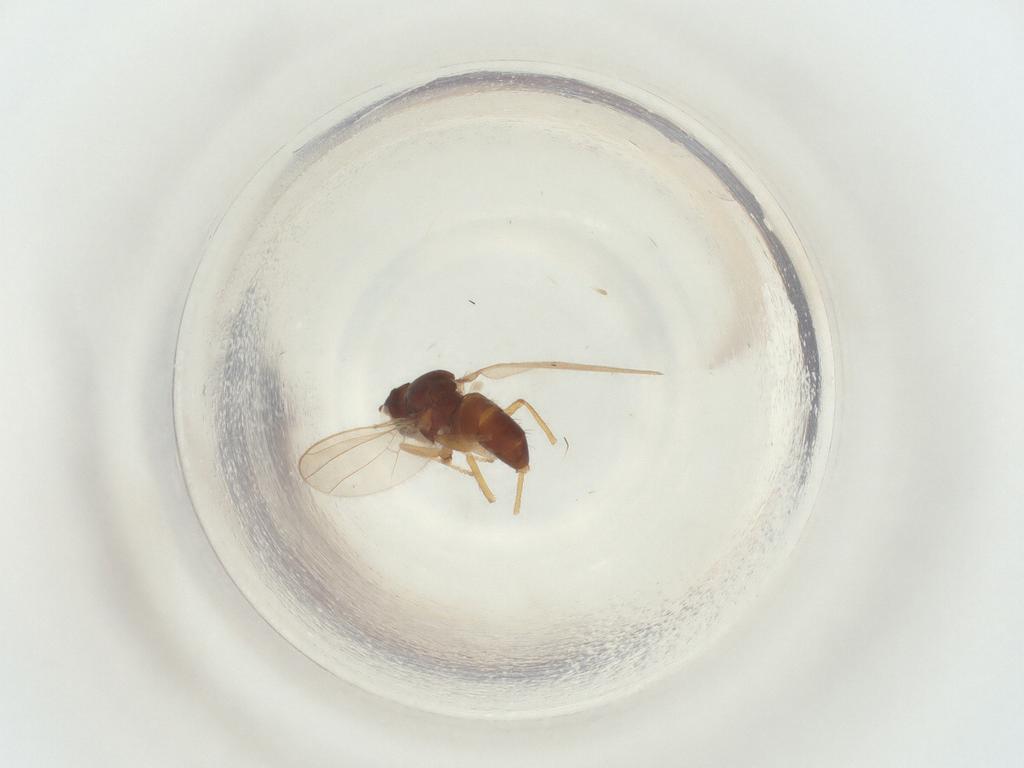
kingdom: Animalia
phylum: Arthropoda
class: Insecta
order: Diptera
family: Ephydridae
